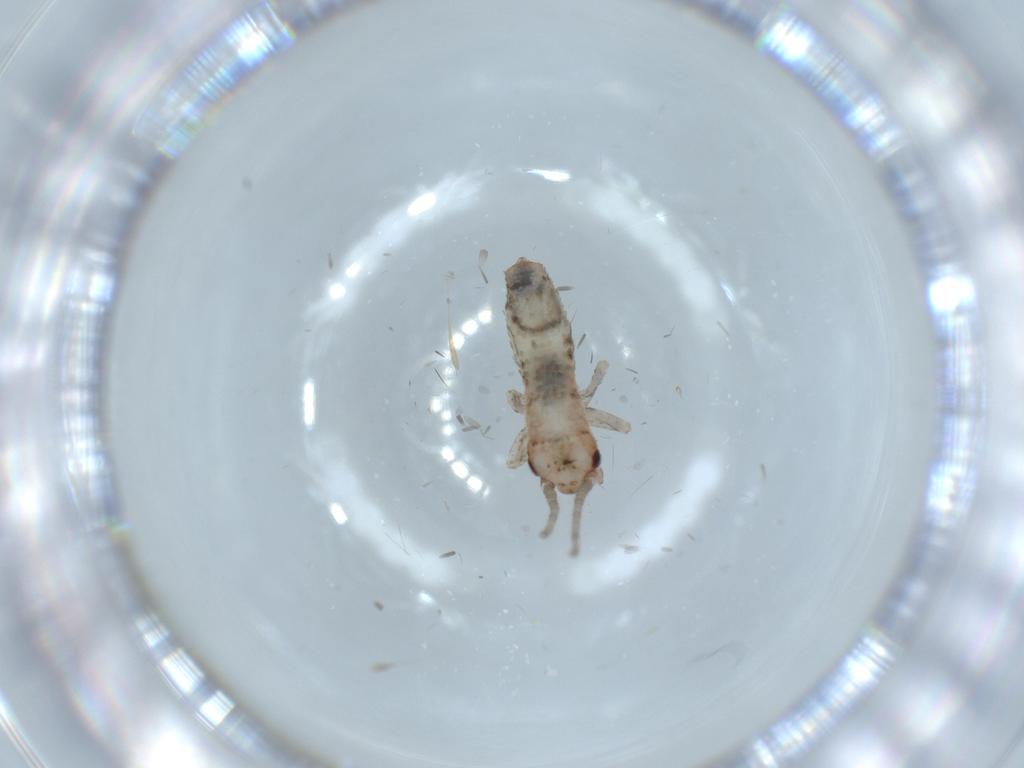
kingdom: Animalia
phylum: Arthropoda
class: Insecta
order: Orthoptera
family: Mogoplistidae
